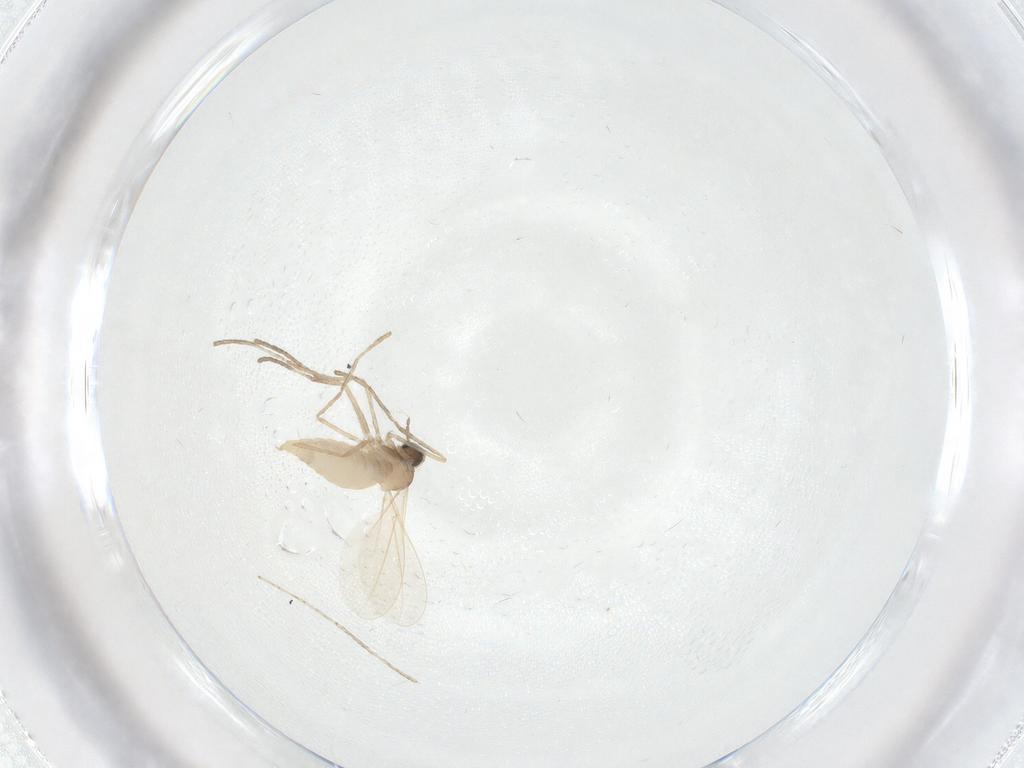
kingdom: Animalia
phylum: Arthropoda
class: Insecta
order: Diptera
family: Cecidomyiidae
